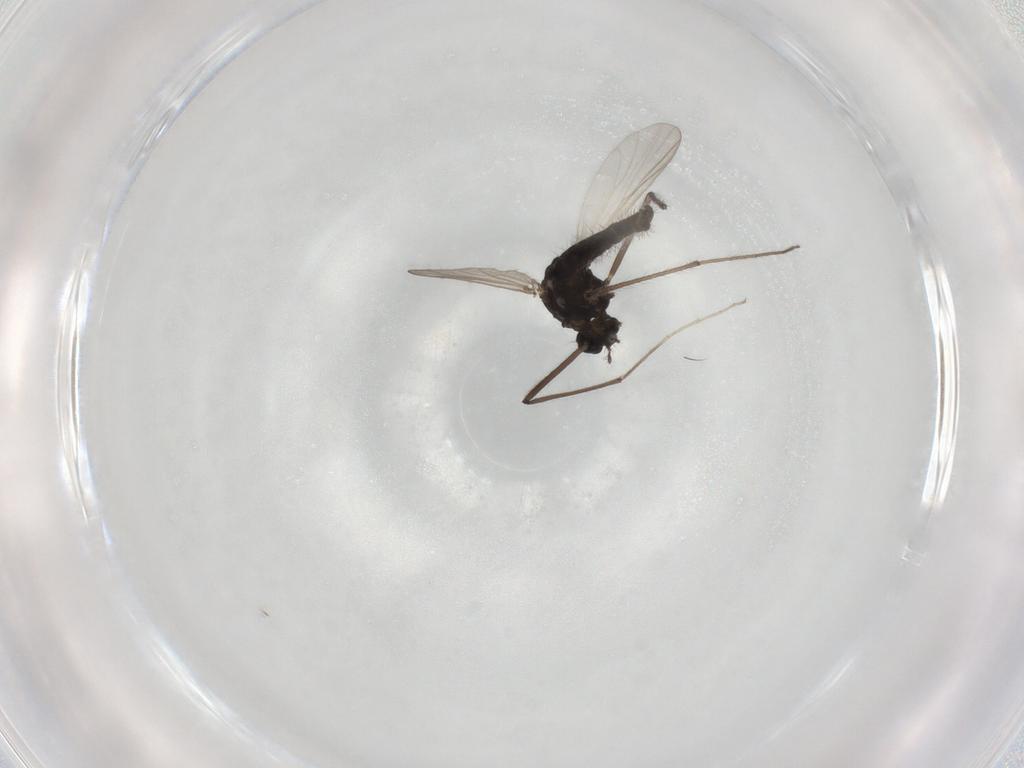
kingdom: Animalia
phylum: Arthropoda
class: Insecta
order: Diptera
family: Chironomidae
